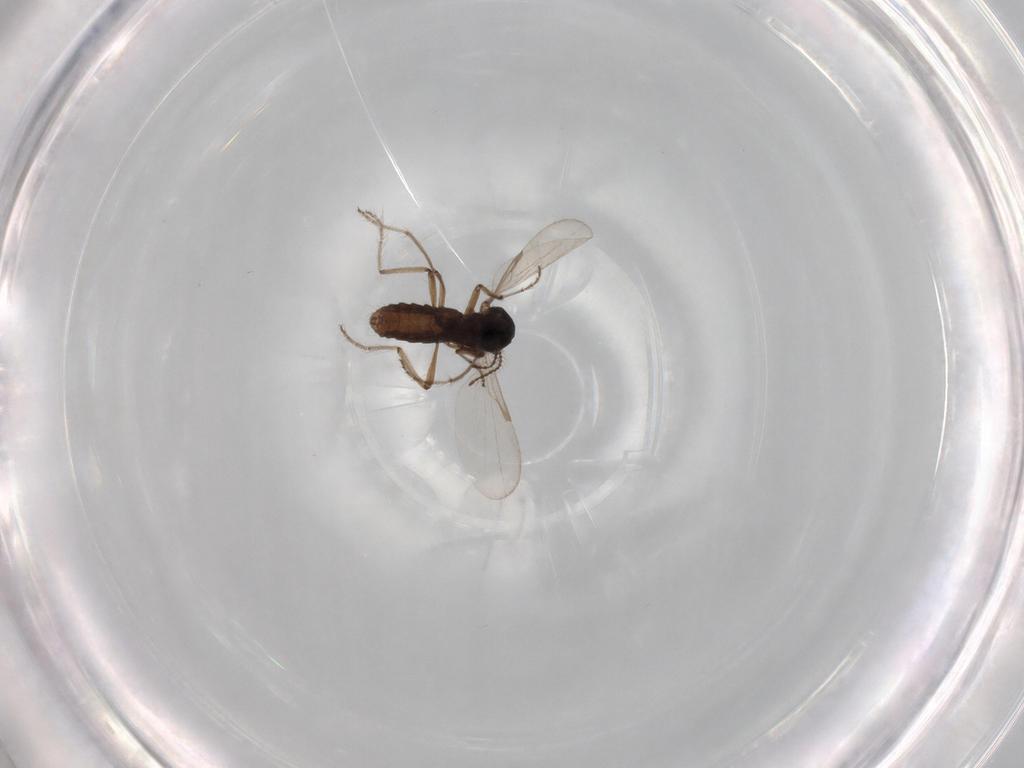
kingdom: Animalia
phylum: Arthropoda
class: Insecta
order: Diptera
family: Ceratopogonidae
